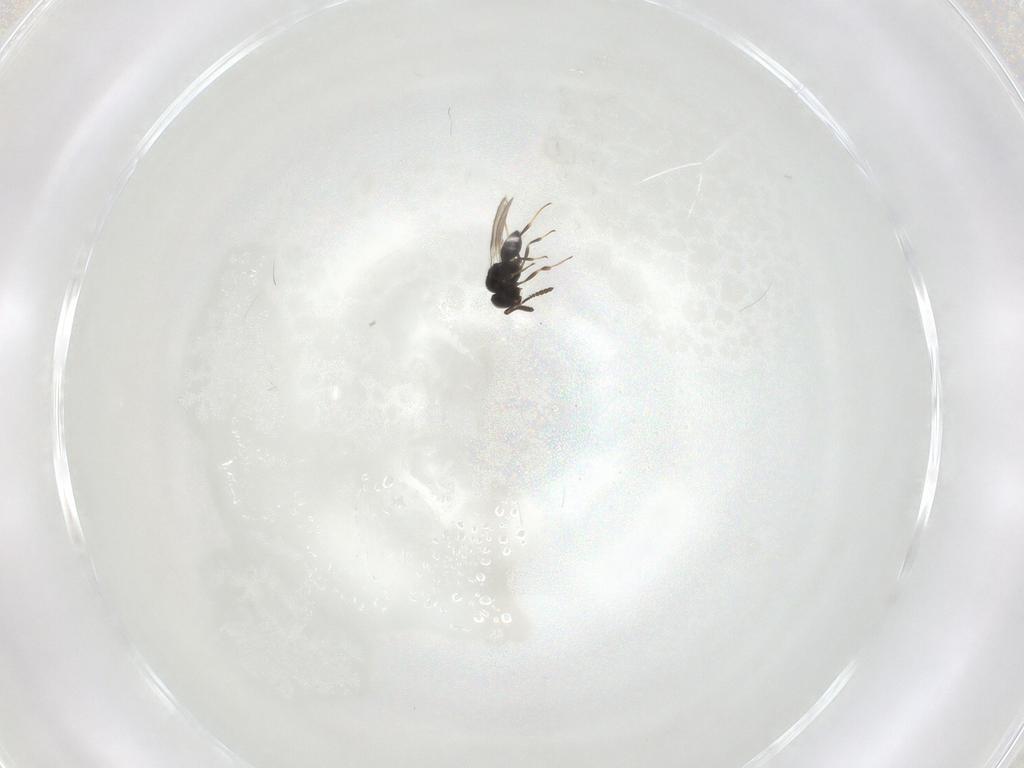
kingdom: Animalia
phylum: Arthropoda
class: Insecta
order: Hymenoptera
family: Scelionidae
